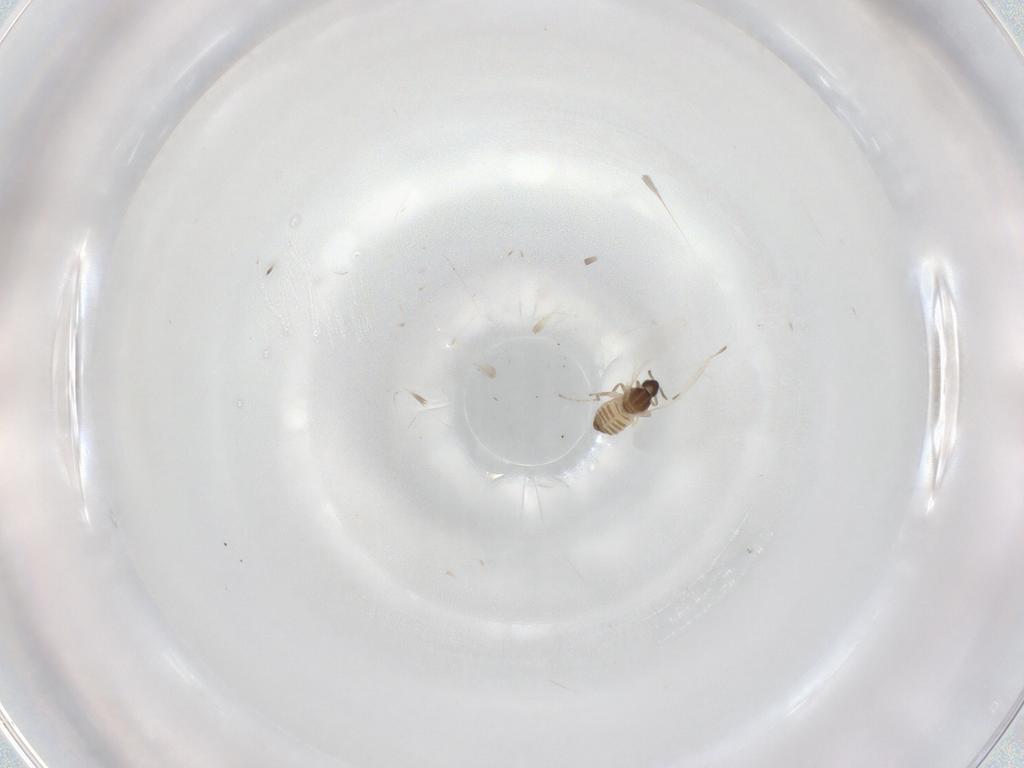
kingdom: Animalia
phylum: Arthropoda
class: Insecta
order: Diptera
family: Cecidomyiidae
